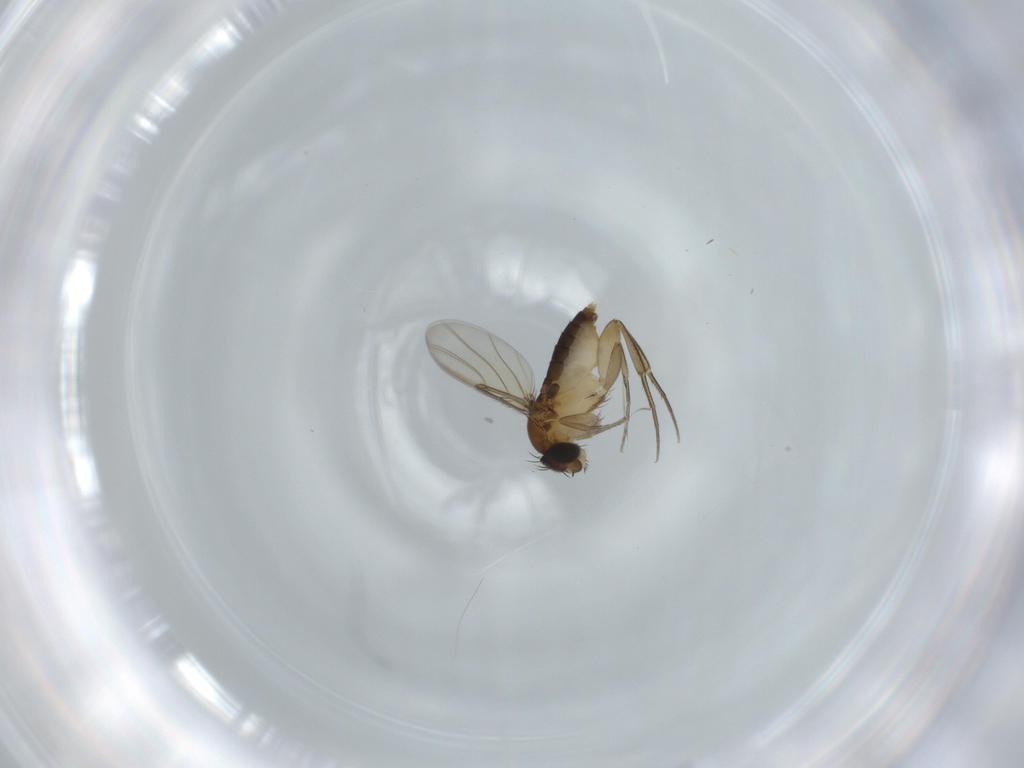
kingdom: Animalia
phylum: Arthropoda
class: Insecta
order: Diptera
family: Phoridae
